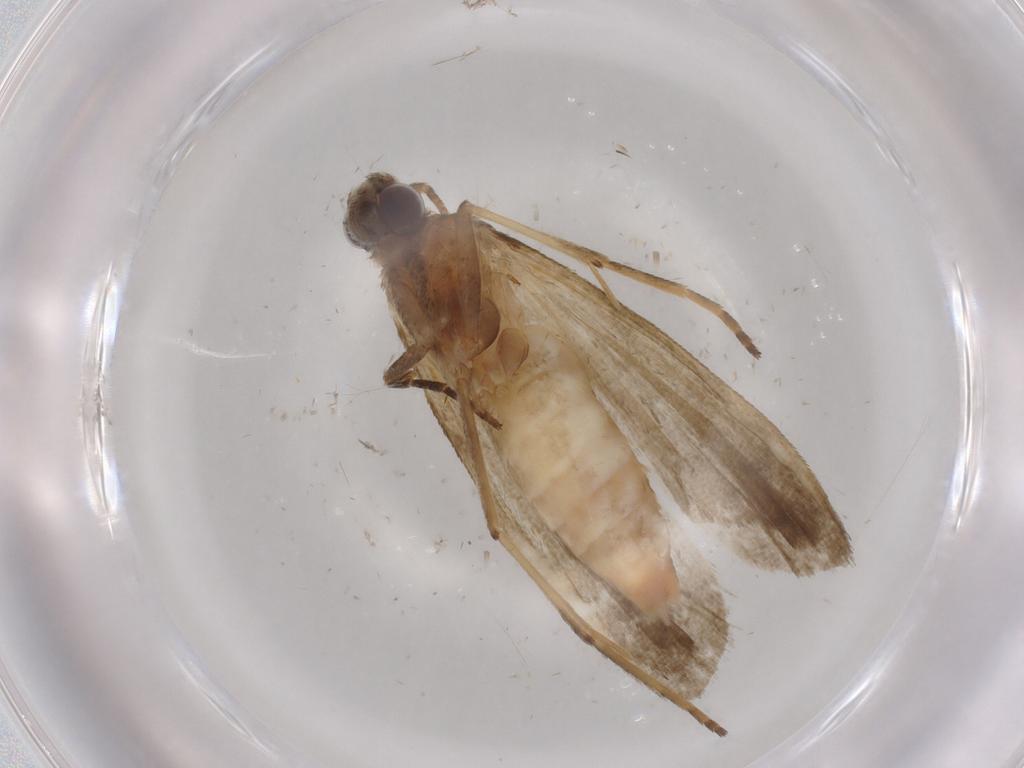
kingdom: Animalia
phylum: Arthropoda
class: Insecta
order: Lepidoptera
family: Noctuidae
